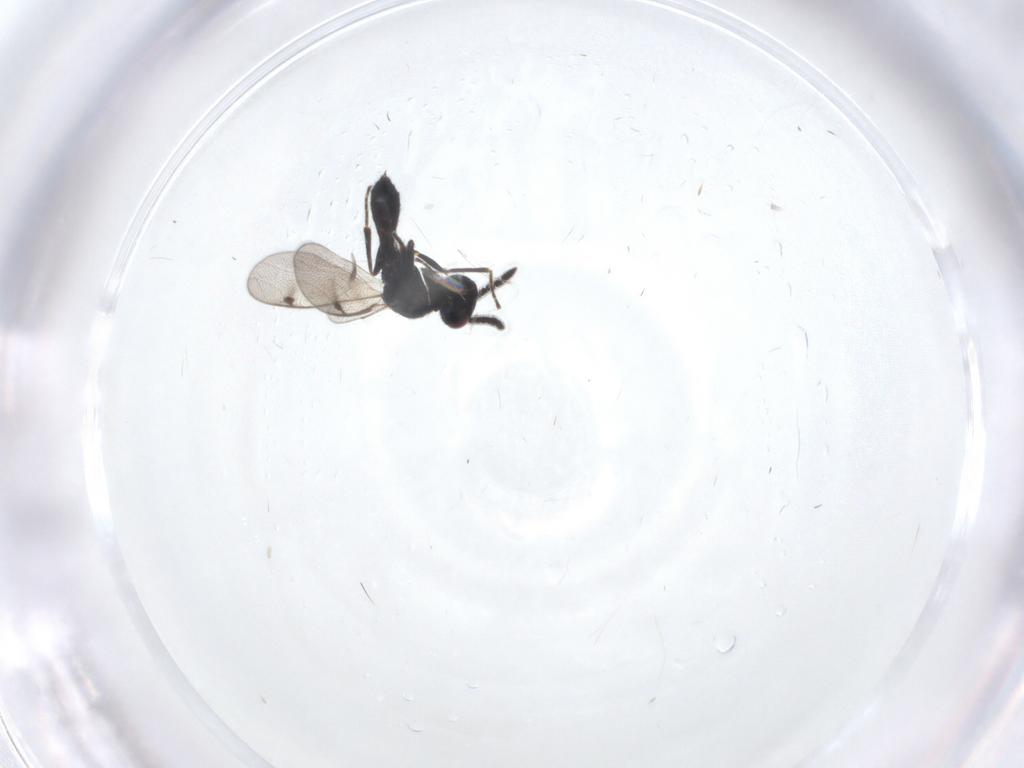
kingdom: Animalia
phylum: Arthropoda
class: Insecta
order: Hymenoptera
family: Pteromalidae
